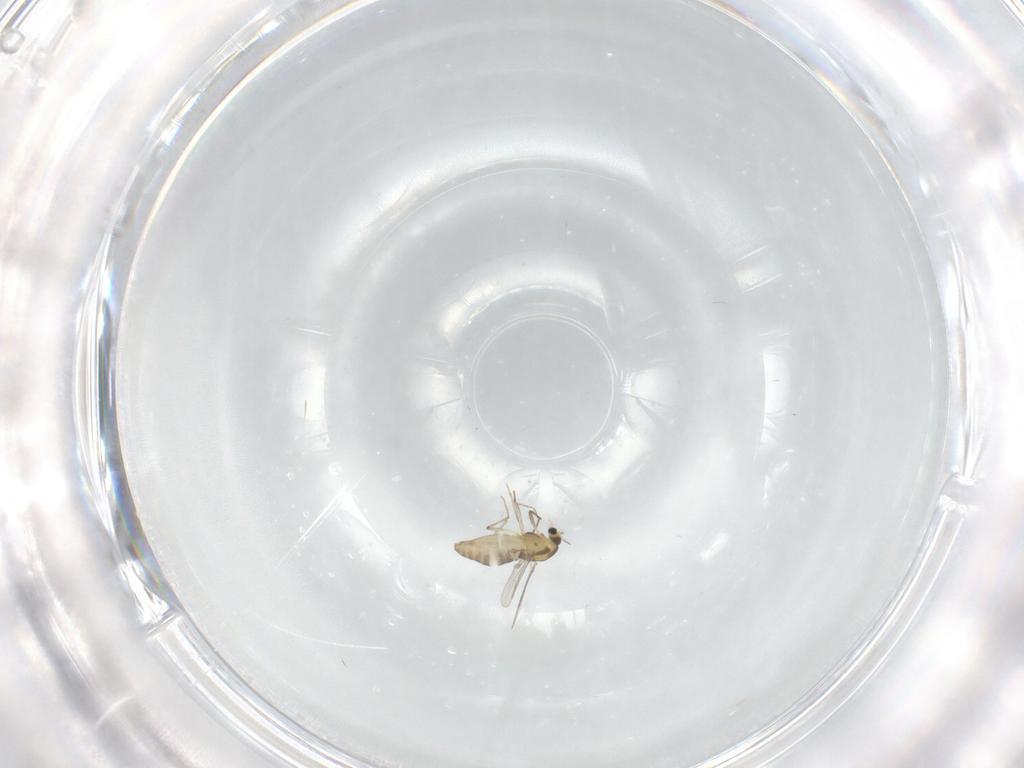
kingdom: Animalia
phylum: Arthropoda
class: Insecta
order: Diptera
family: Chironomidae
